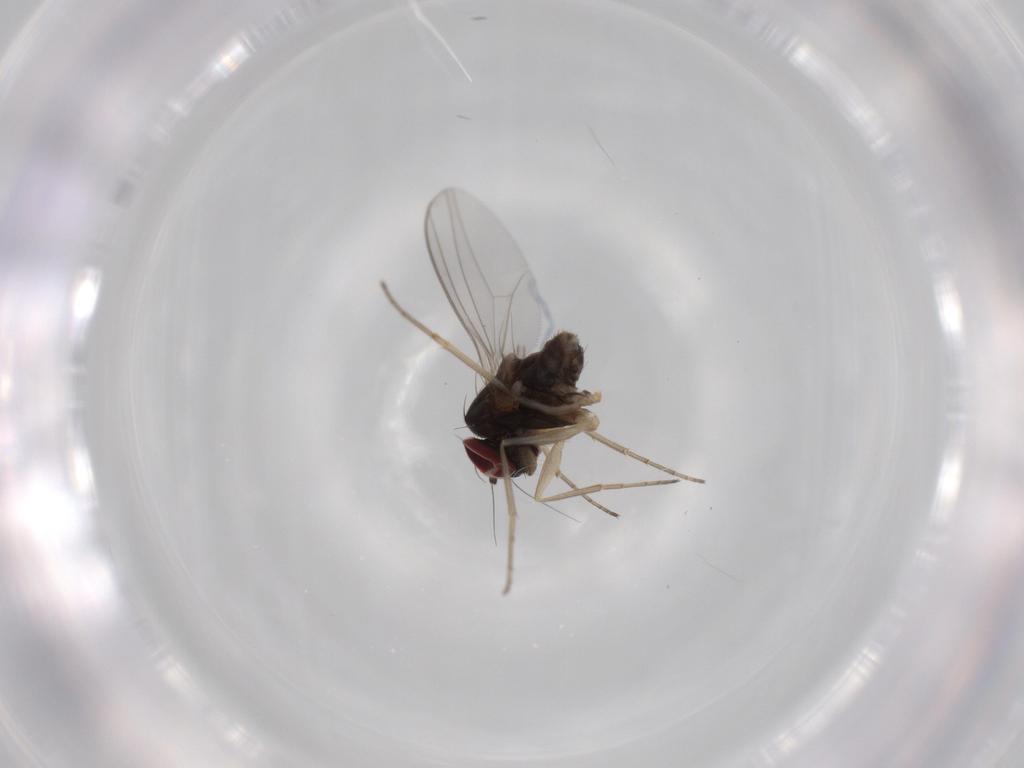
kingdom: Animalia
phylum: Arthropoda
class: Insecta
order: Diptera
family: Dolichopodidae
